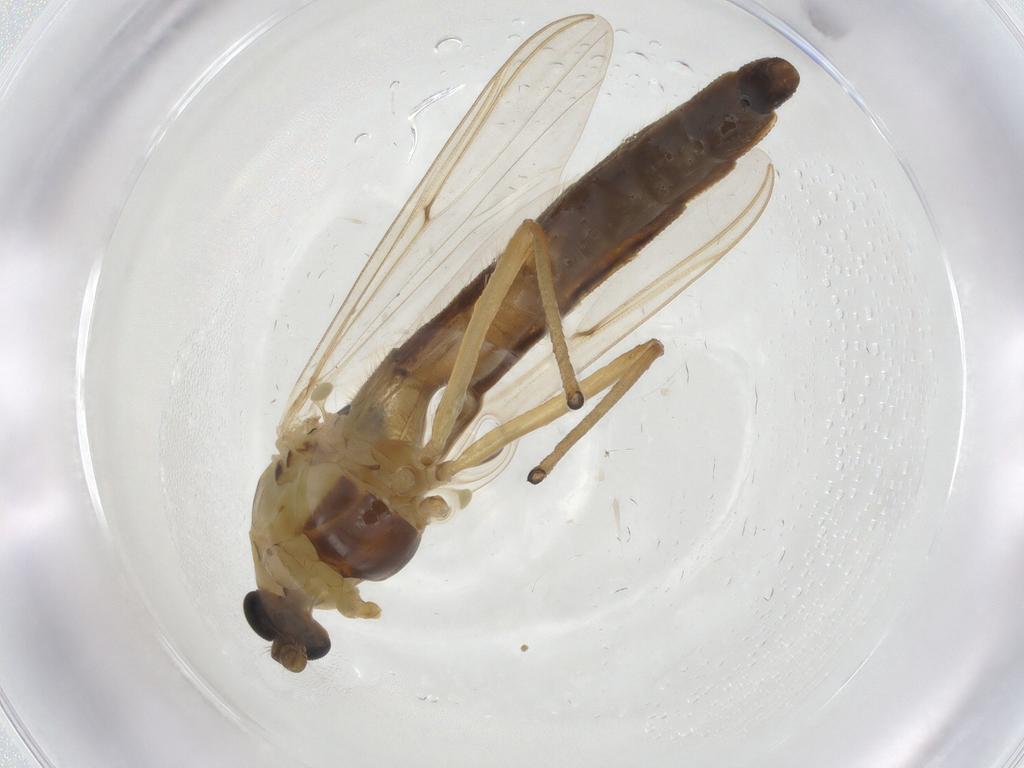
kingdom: Animalia
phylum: Arthropoda
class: Insecta
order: Diptera
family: Chironomidae
